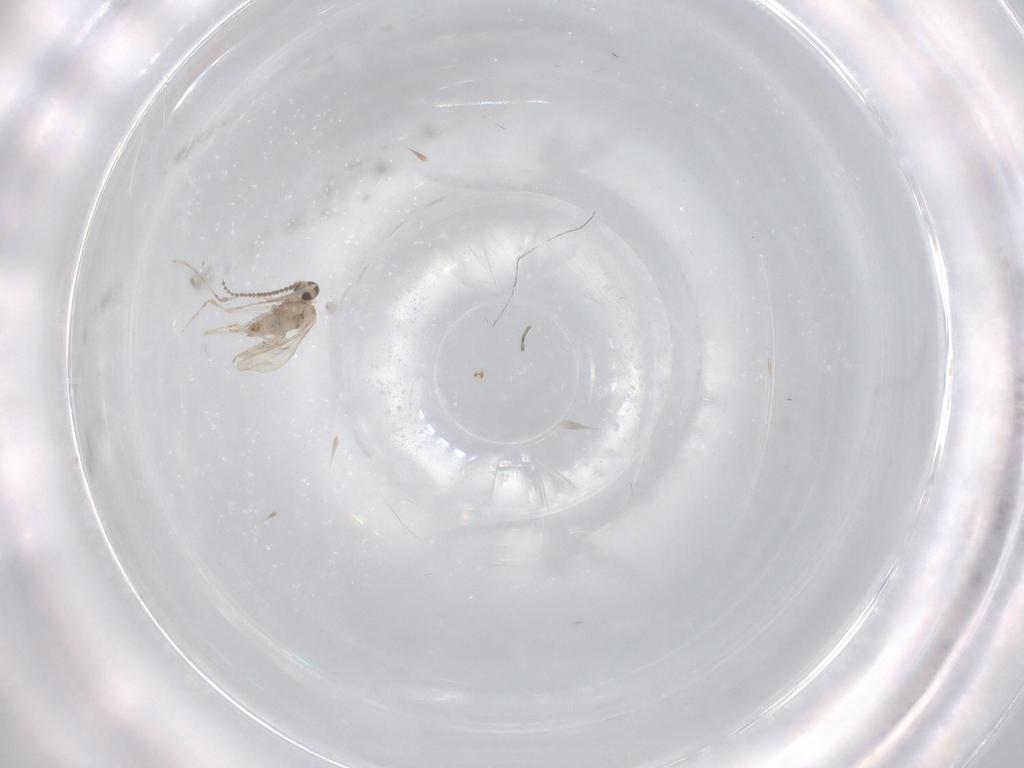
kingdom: Animalia
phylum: Arthropoda
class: Insecta
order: Diptera
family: Cecidomyiidae
